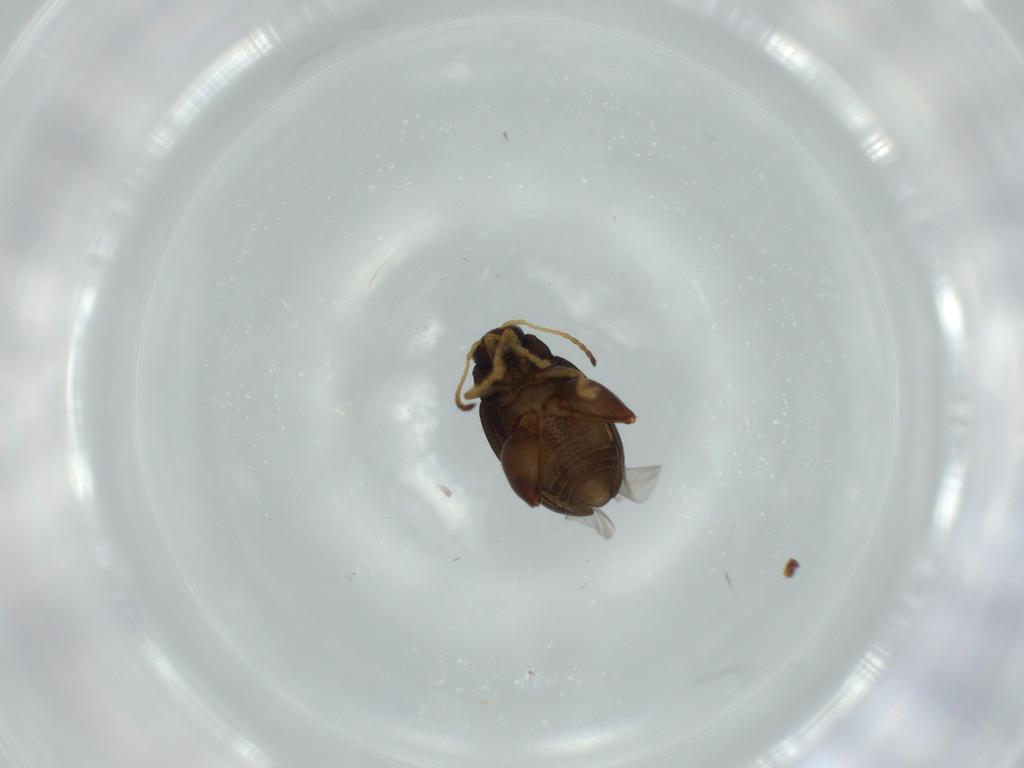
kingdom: Animalia
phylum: Arthropoda
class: Insecta
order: Coleoptera
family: Chrysomelidae
